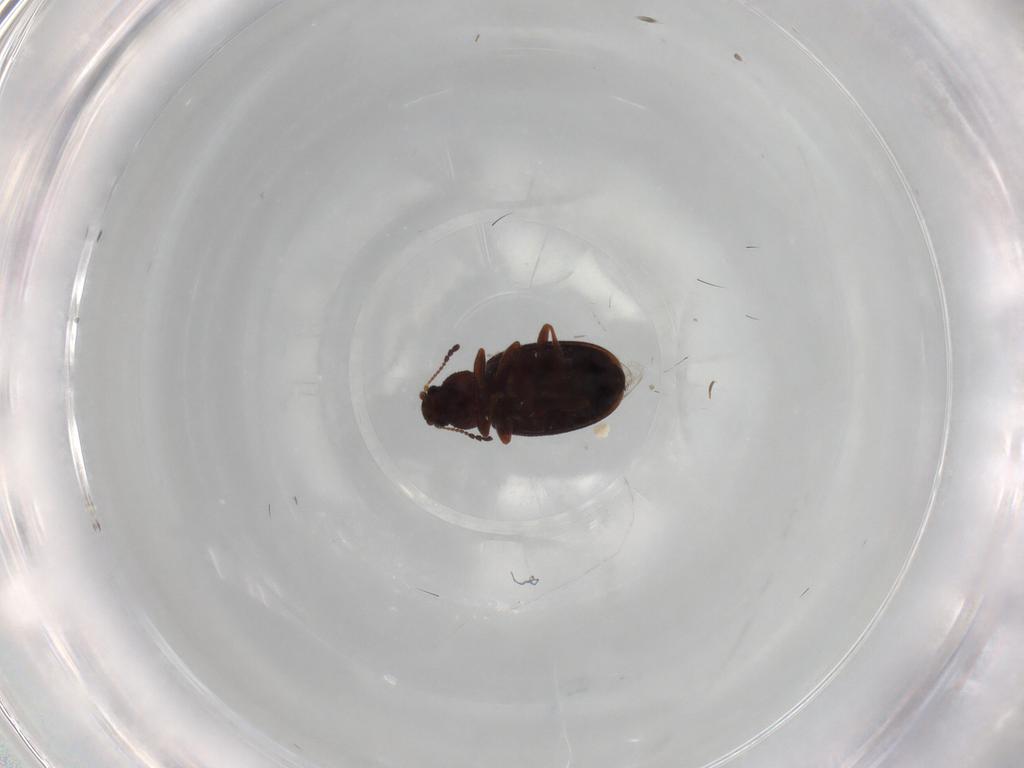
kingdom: Animalia
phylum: Arthropoda
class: Insecta
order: Coleoptera
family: Latridiidae
